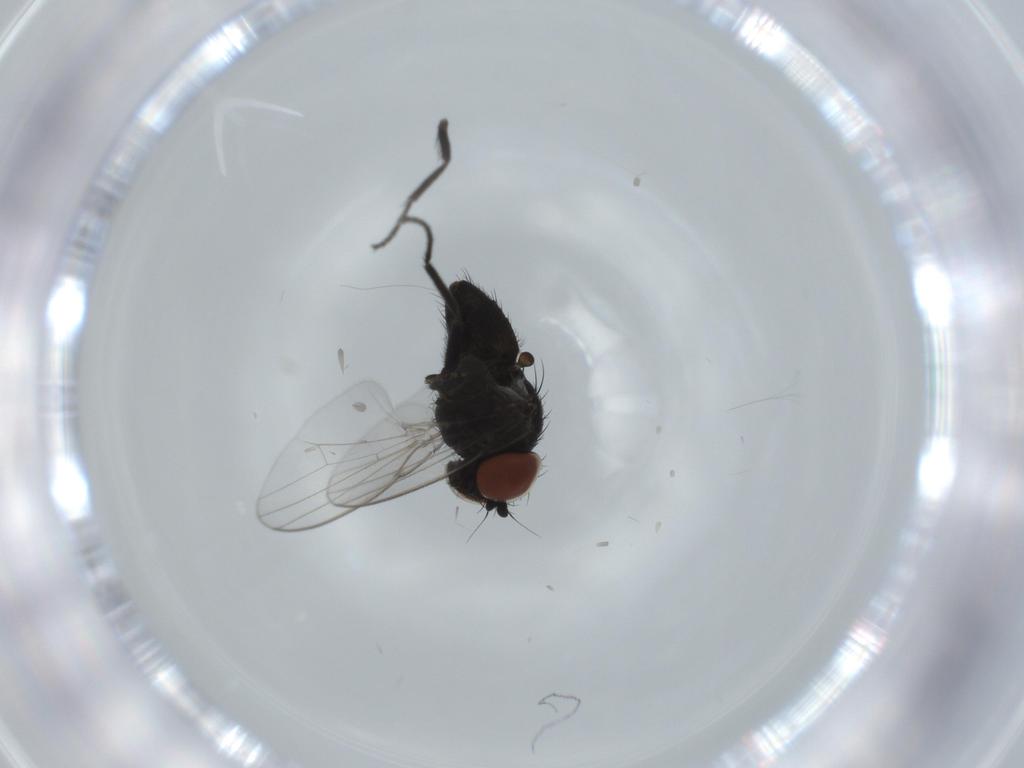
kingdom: Animalia
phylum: Arthropoda
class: Insecta
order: Diptera
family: Milichiidae
